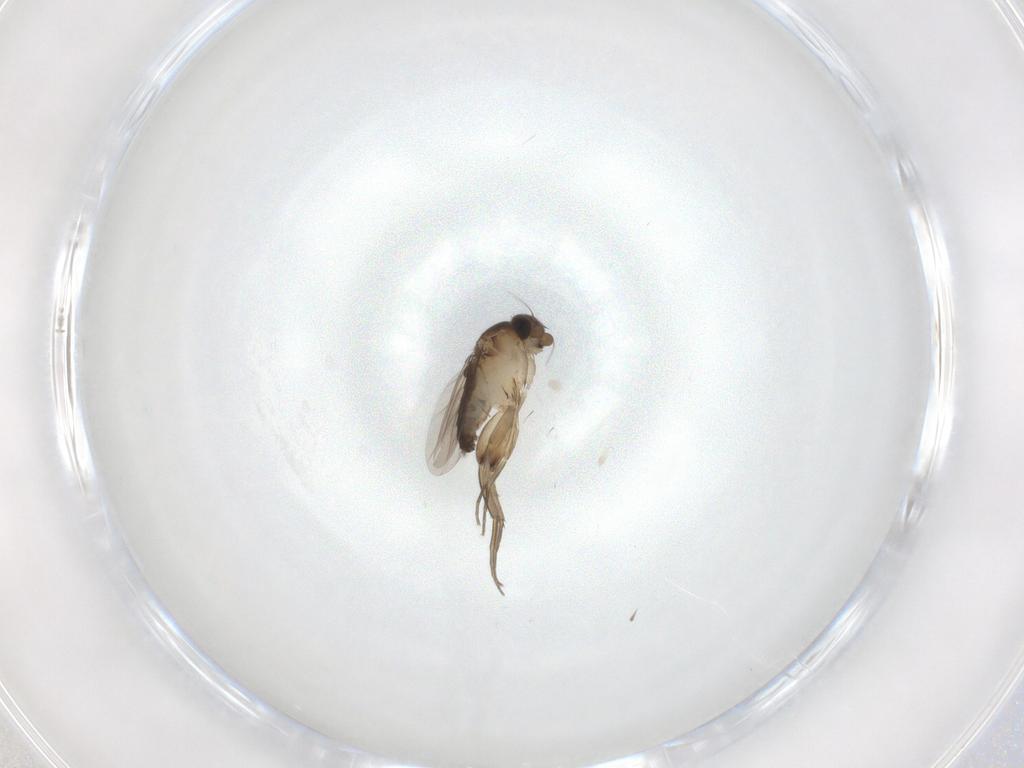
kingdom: Animalia
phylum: Arthropoda
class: Insecta
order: Diptera
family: Phoridae
